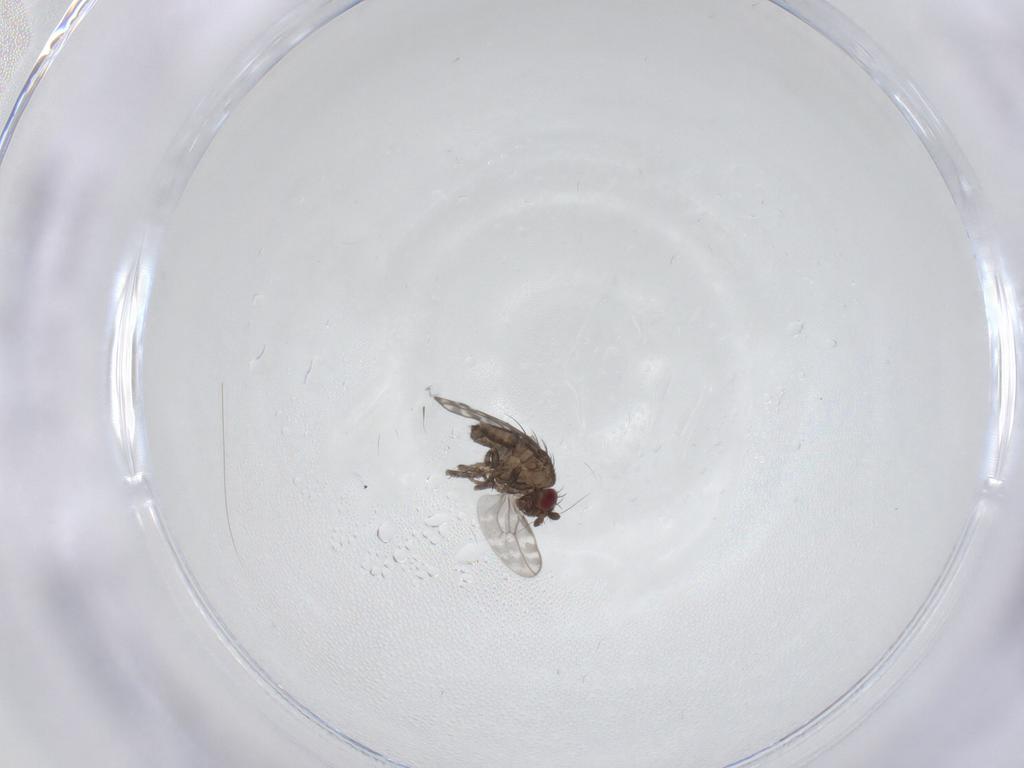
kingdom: Animalia
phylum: Arthropoda
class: Insecta
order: Diptera
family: Sphaeroceridae
